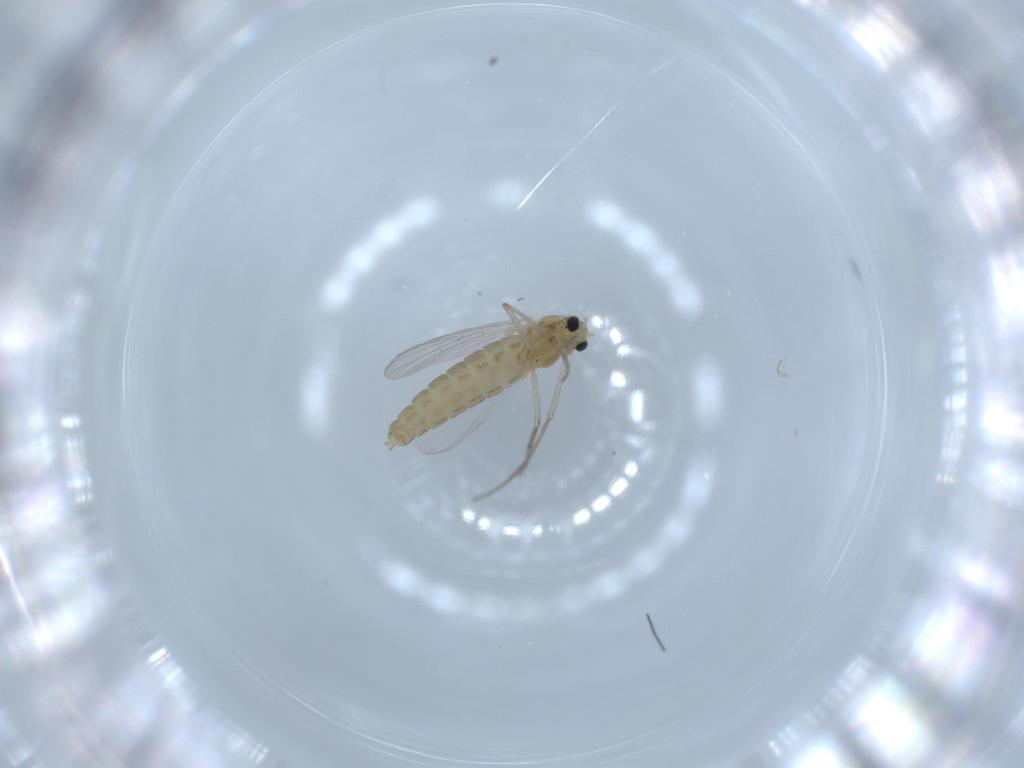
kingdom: Animalia
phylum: Arthropoda
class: Insecta
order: Diptera
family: Chironomidae
